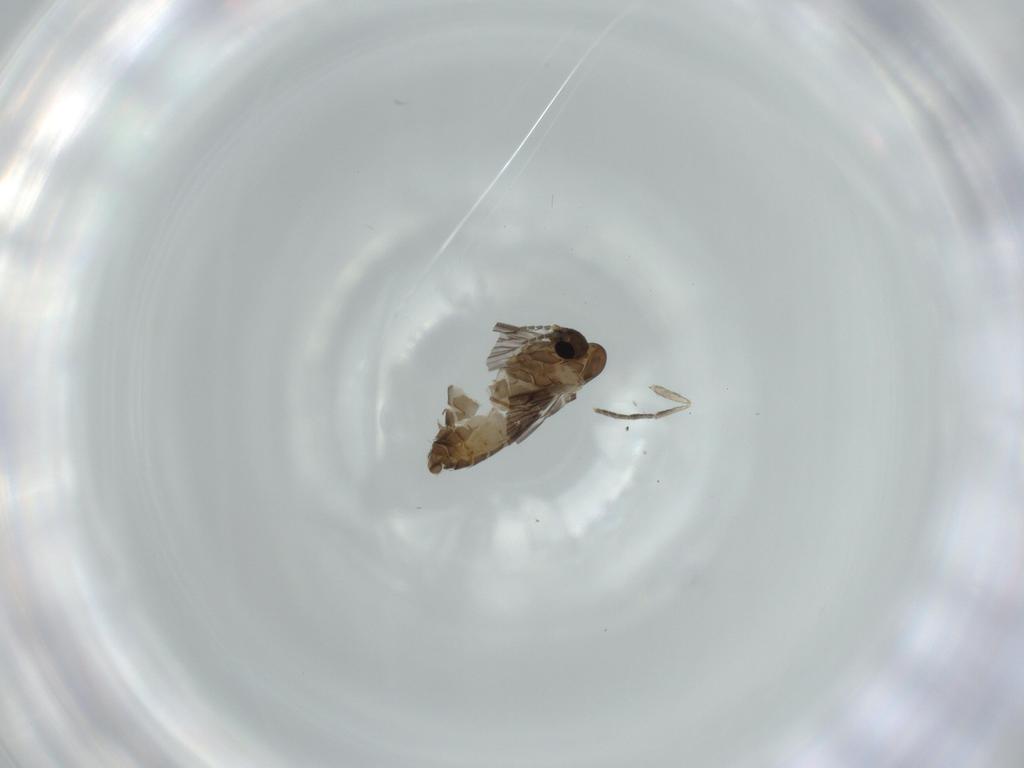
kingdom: Animalia
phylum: Arthropoda
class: Insecta
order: Diptera
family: Psychodidae
